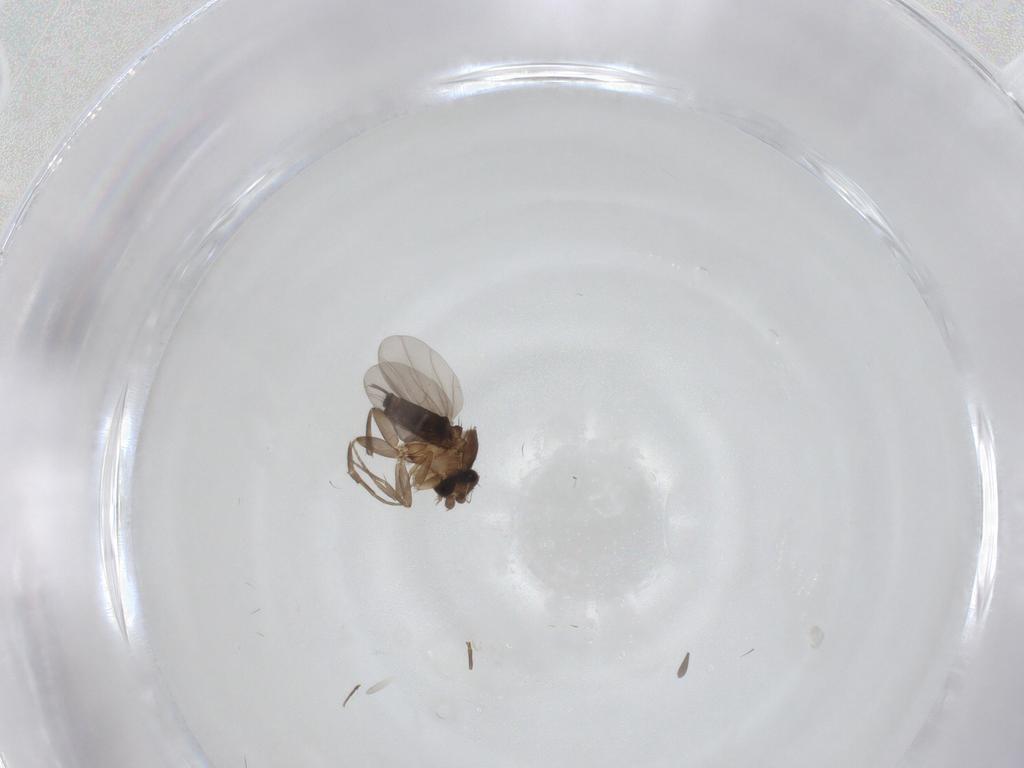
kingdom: Animalia
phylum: Arthropoda
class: Insecta
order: Diptera
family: Phoridae
